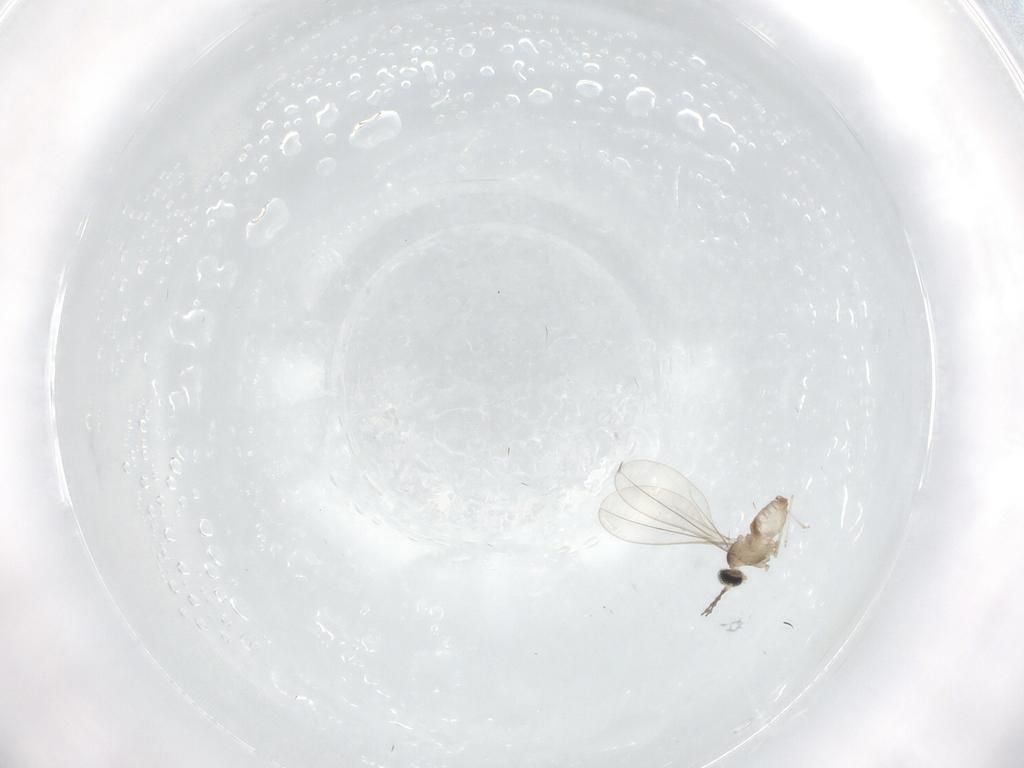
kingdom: Animalia
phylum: Arthropoda
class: Insecta
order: Diptera
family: Cecidomyiidae
